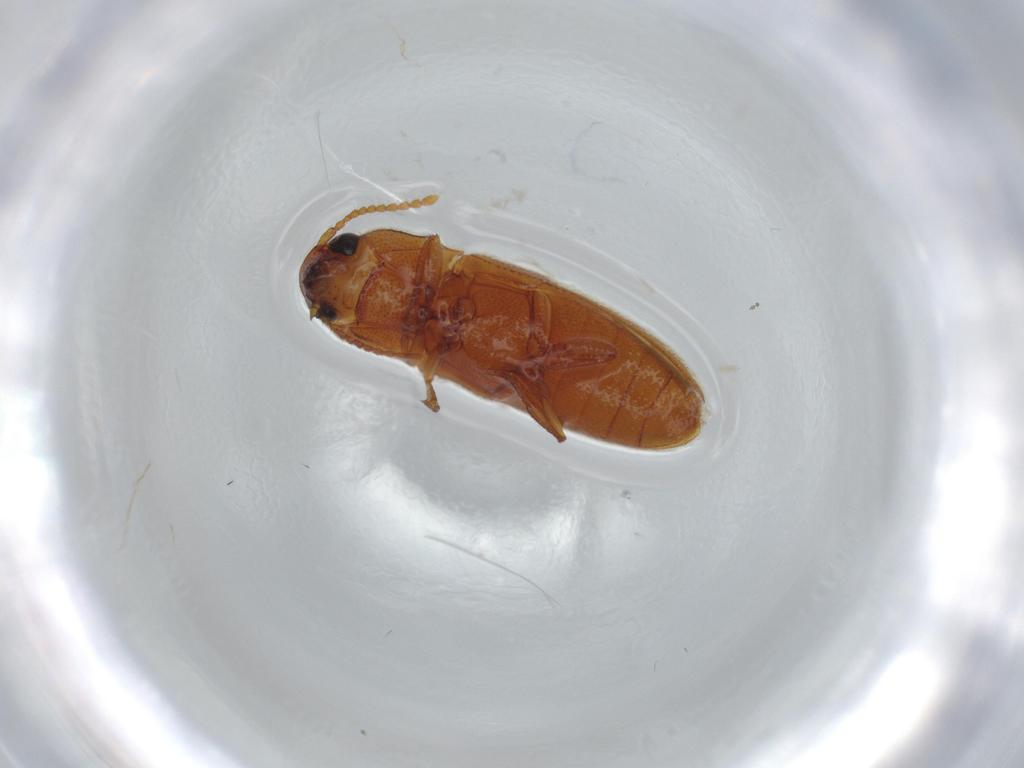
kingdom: Animalia
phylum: Arthropoda
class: Insecta
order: Coleoptera
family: Elateridae
